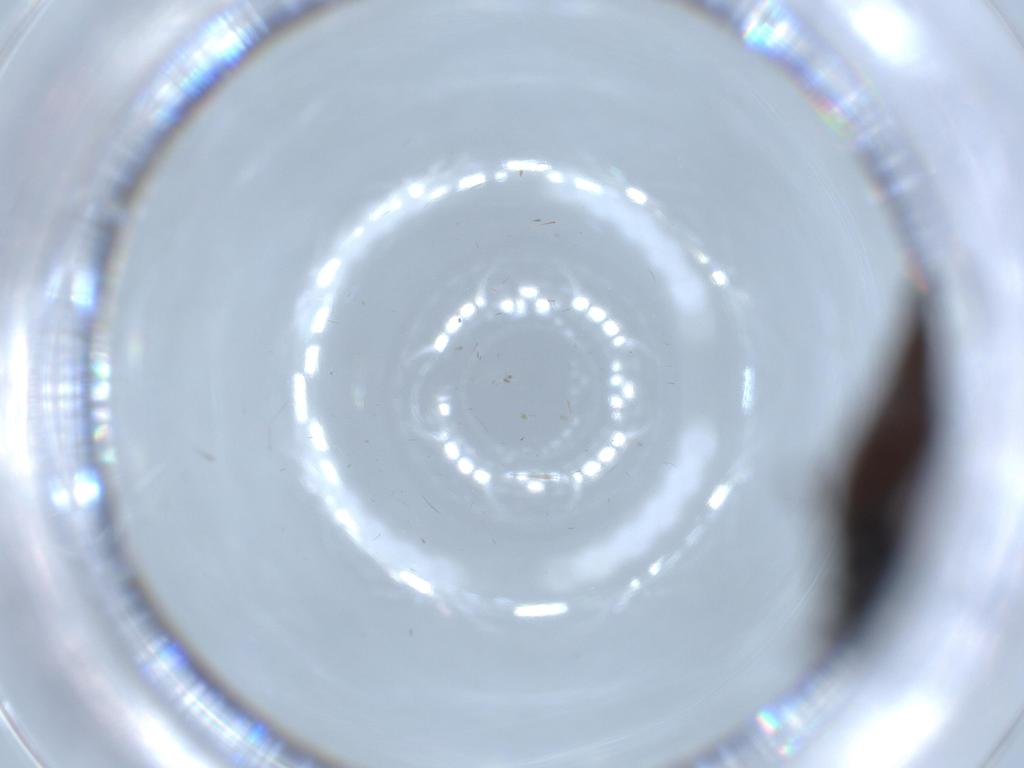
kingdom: Animalia
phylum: Arthropoda
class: Insecta
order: Diptera
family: Sciaridae
